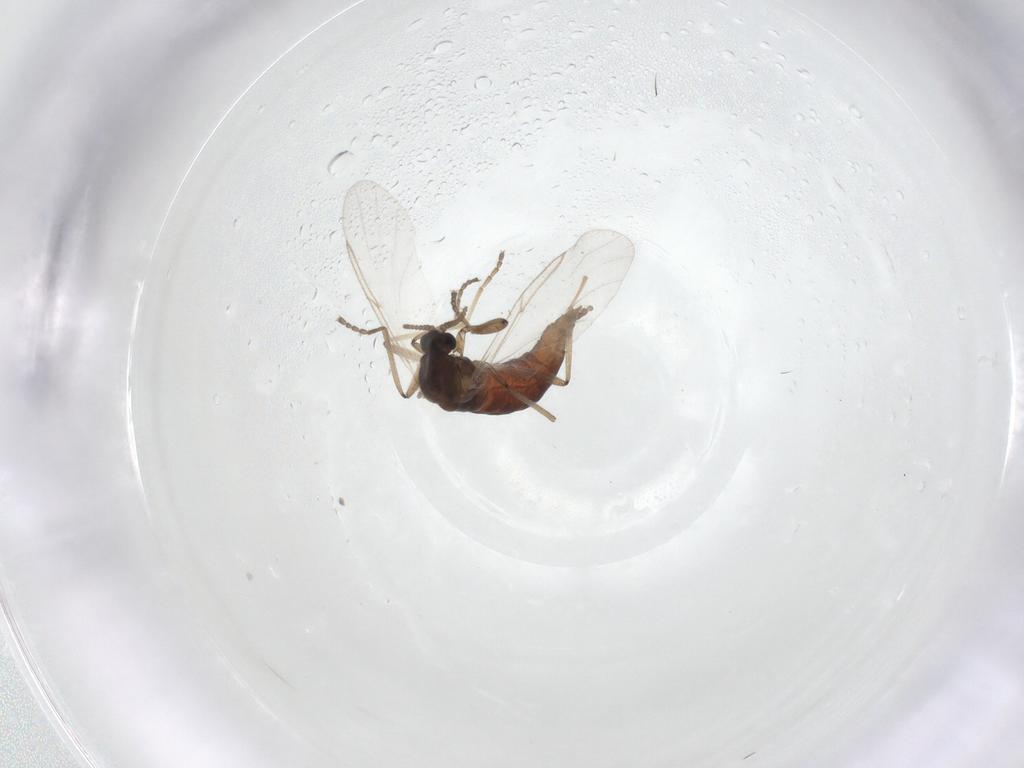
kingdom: Animalia
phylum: Arthropoda
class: Insecta
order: Diptera
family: Cecidomyiidae
